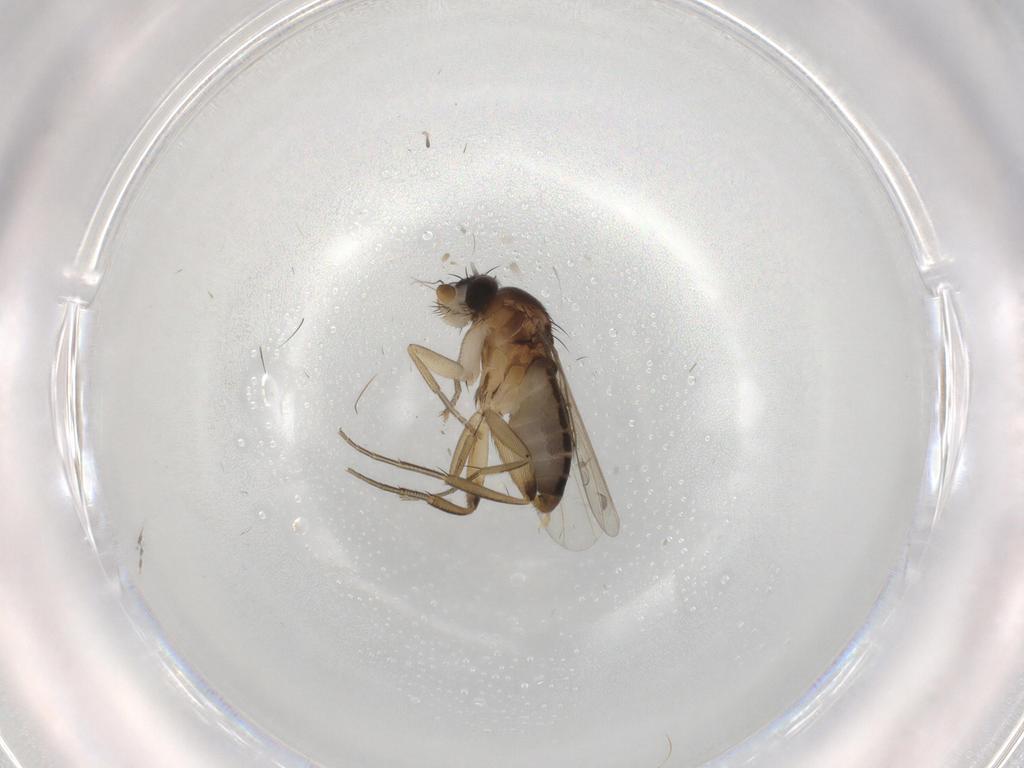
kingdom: Animalia
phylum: Arthropoda
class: Insecta
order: Diptera
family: Phoridae
